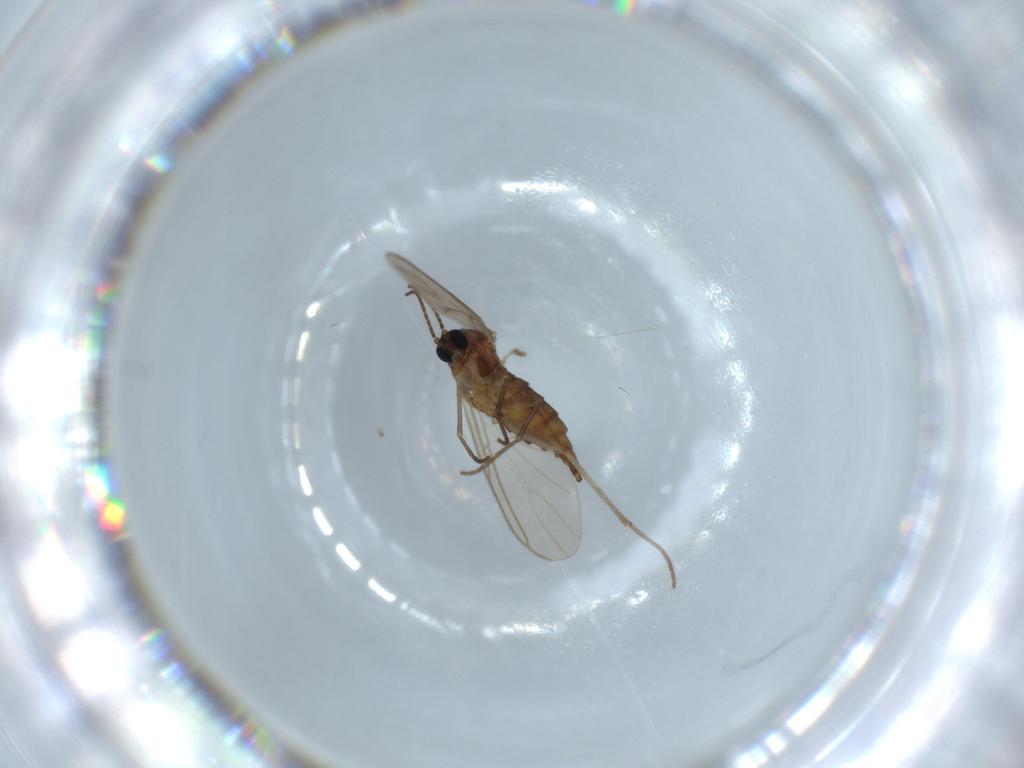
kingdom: Animalia
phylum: Arthropoda
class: Insecta
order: Diptera
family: Sciaridae
